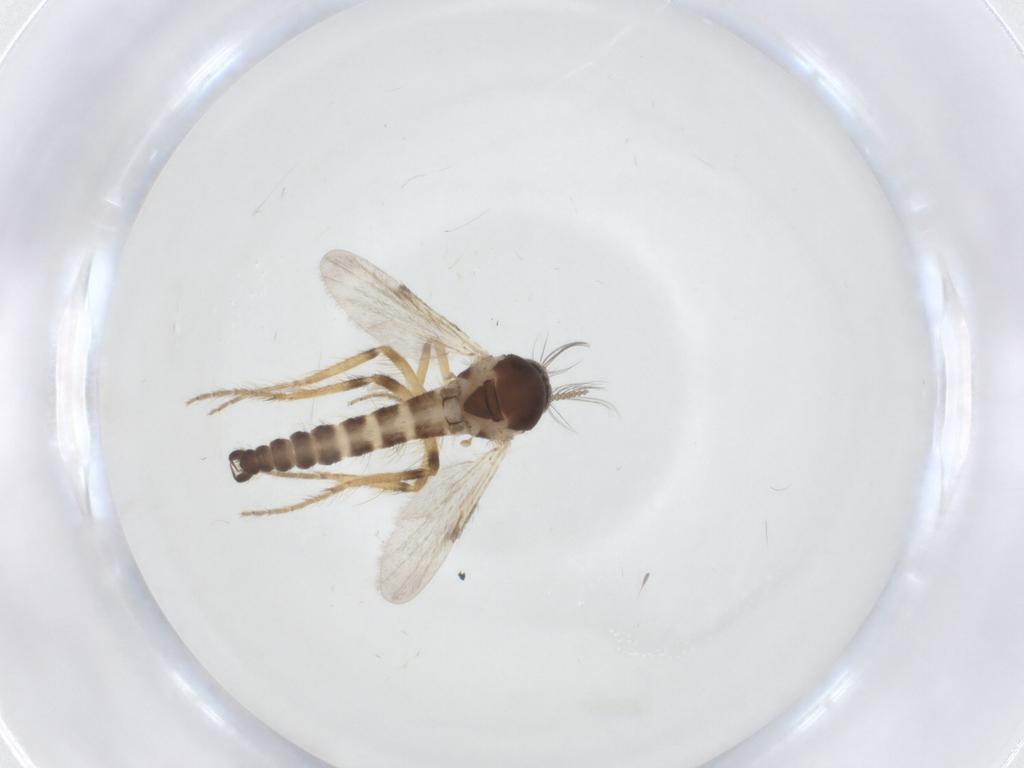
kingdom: Animalia
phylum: Arthropoda
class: Insecta
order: Diptera
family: Ceratopogonidae
